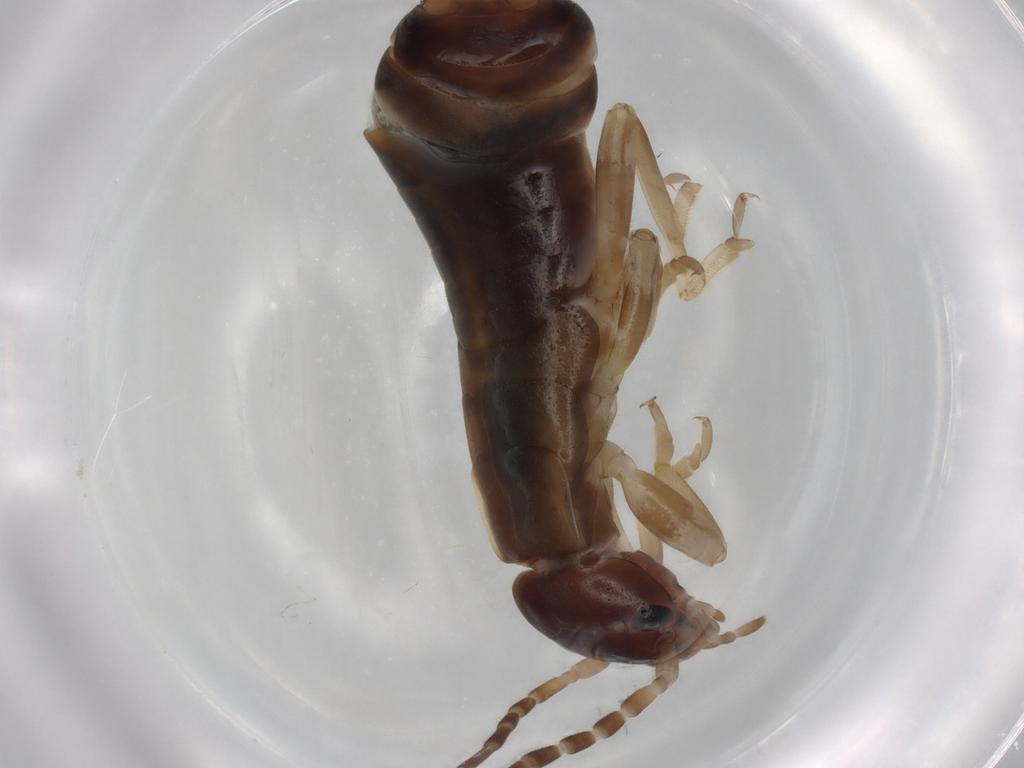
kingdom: Animalia
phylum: Arthropoda
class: Insecta
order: Dermaptera
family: Forficulidae
